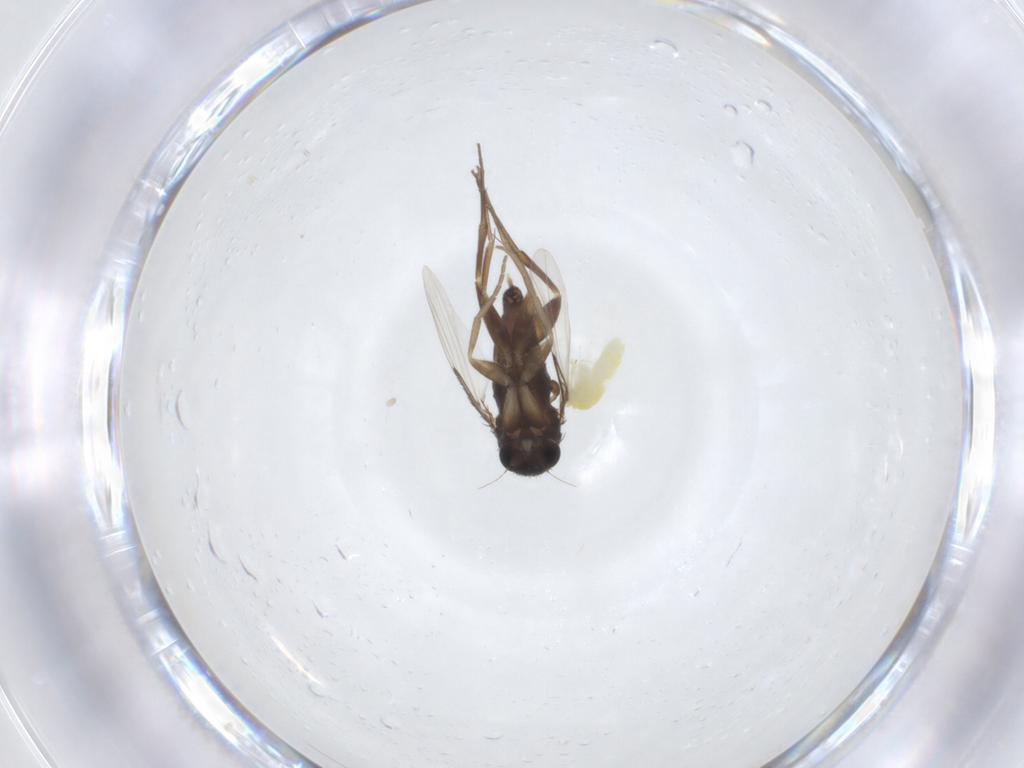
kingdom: Animalia
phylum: Arthropoda
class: Insecta
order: Diptera
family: Phoridae
